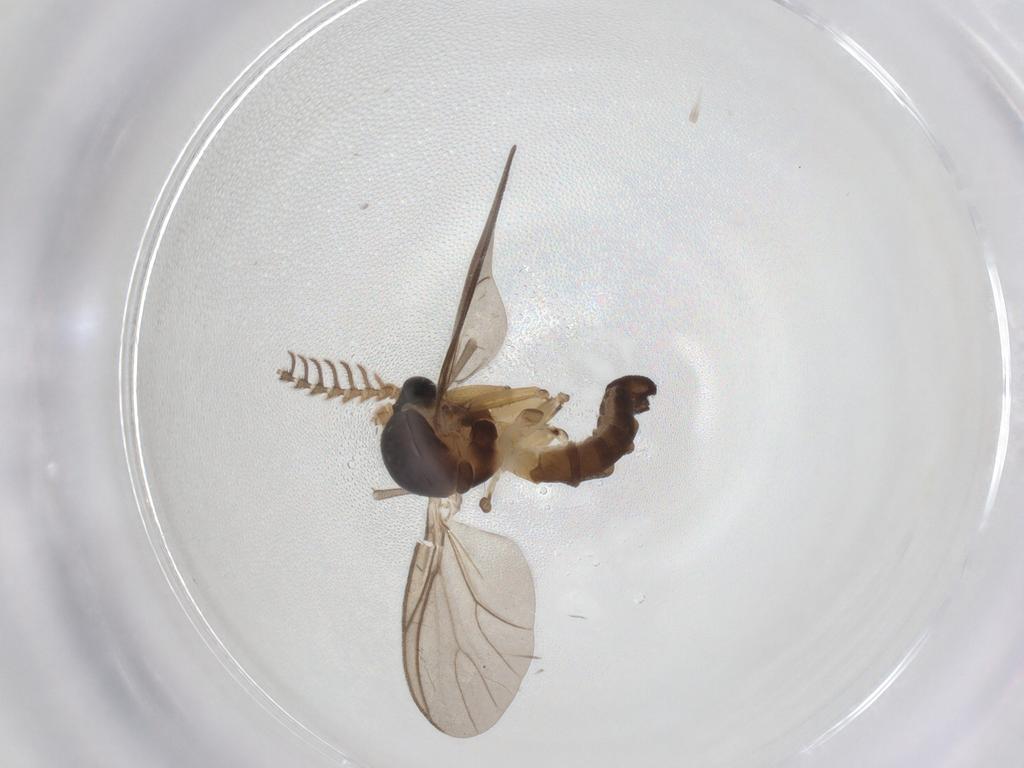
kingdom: Animalia
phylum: Arthropoda
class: Insecta
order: Diptera
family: Mycetophilidae
